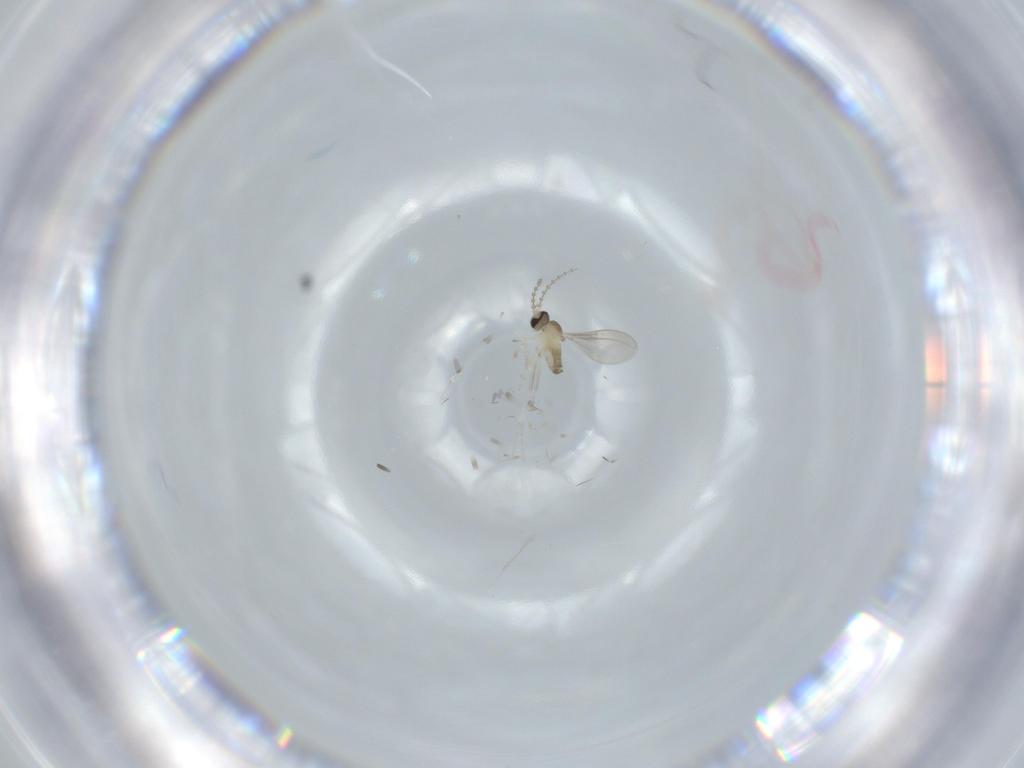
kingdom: Animalia
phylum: Arthropoda
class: Insecta
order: Diptera
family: Cecidomyiidae
